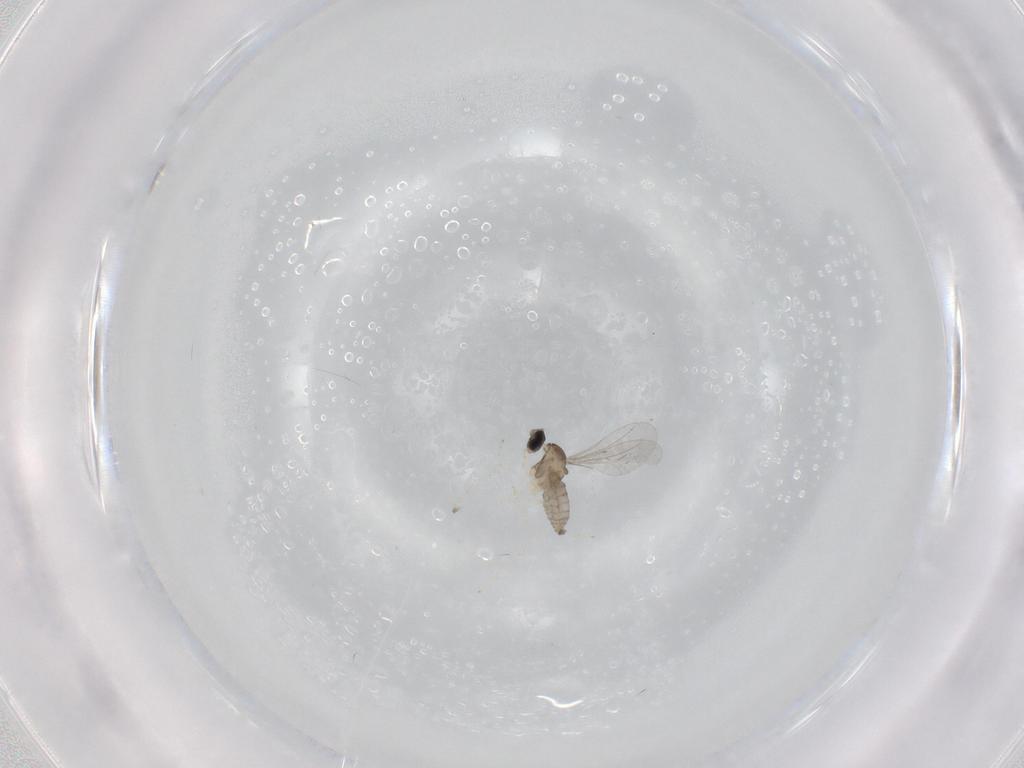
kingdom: Animalia
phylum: Arthropoda
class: Insecta
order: Diptera
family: Cecidomyiidae
